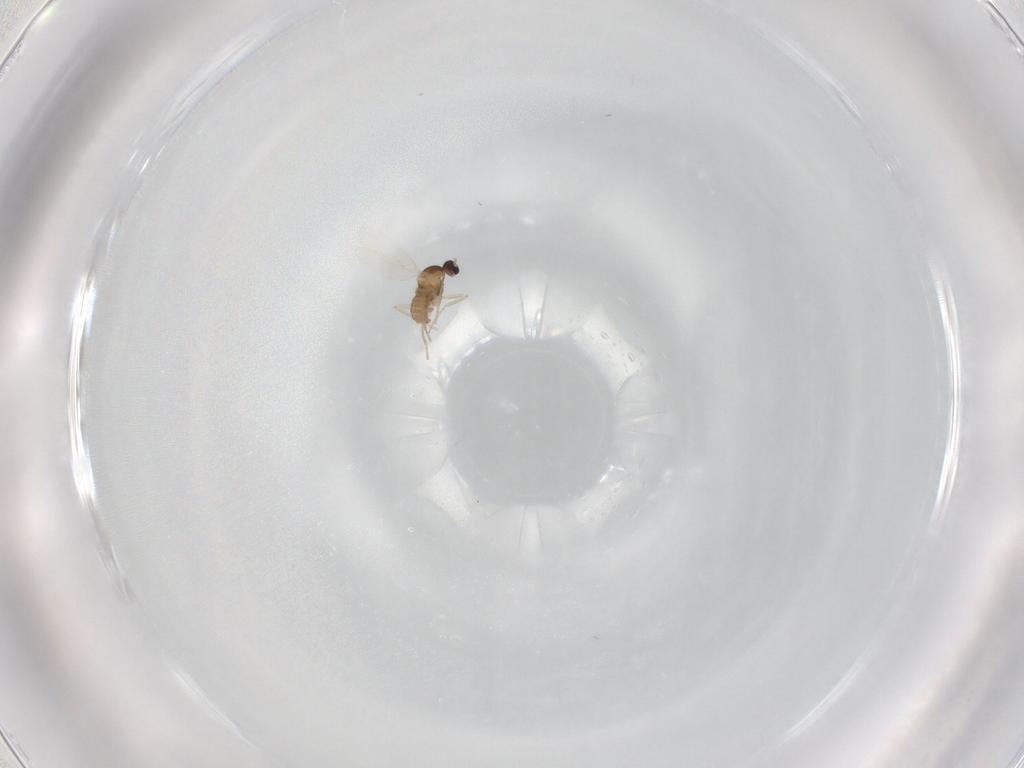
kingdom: Animalia
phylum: Arthropoda
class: Insecta
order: Diptera
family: Cecidomyiidae
